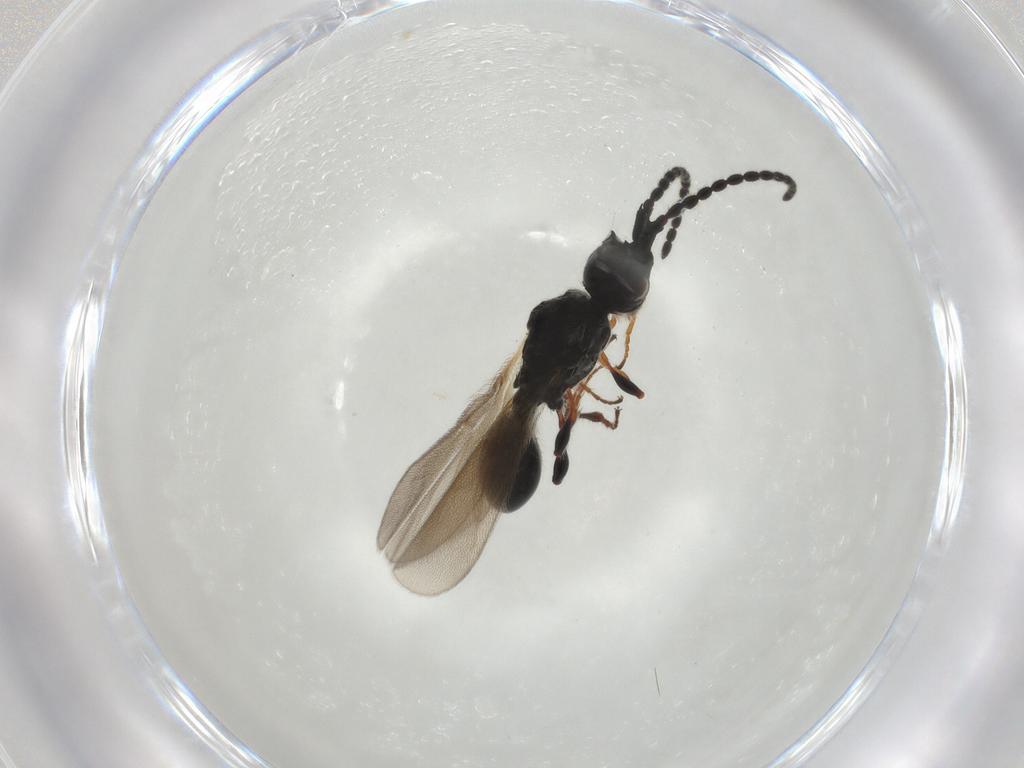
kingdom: Animalia
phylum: Arthropoda
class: Insecta
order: Hymenoptera
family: Diapriidae
